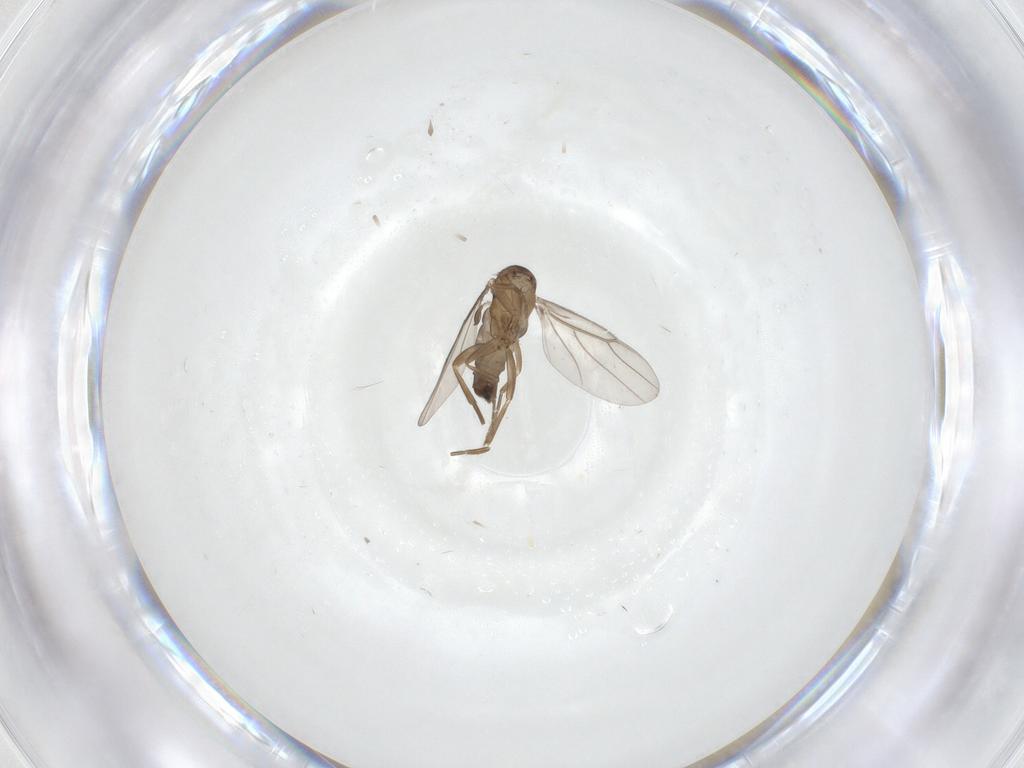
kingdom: Animalia
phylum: Arthropoda
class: Insecta
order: Diptera
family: Phoridae
